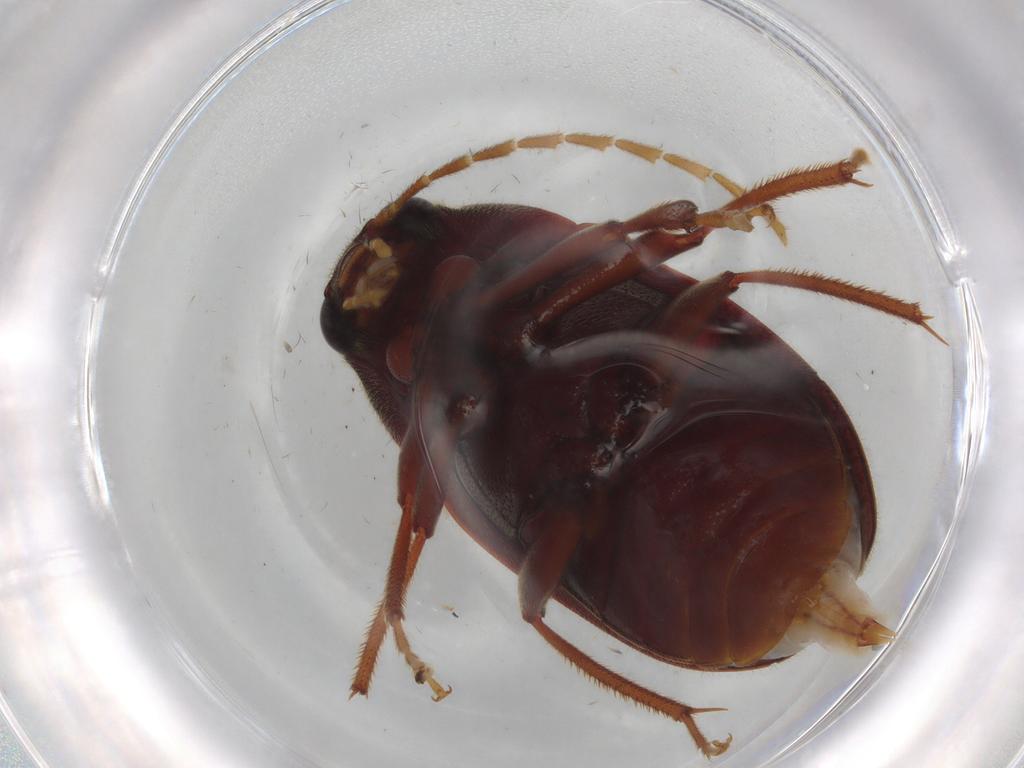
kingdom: Animalia
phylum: Arthropoda
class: Insecta
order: Coleoptera
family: Ptilodactylidae
